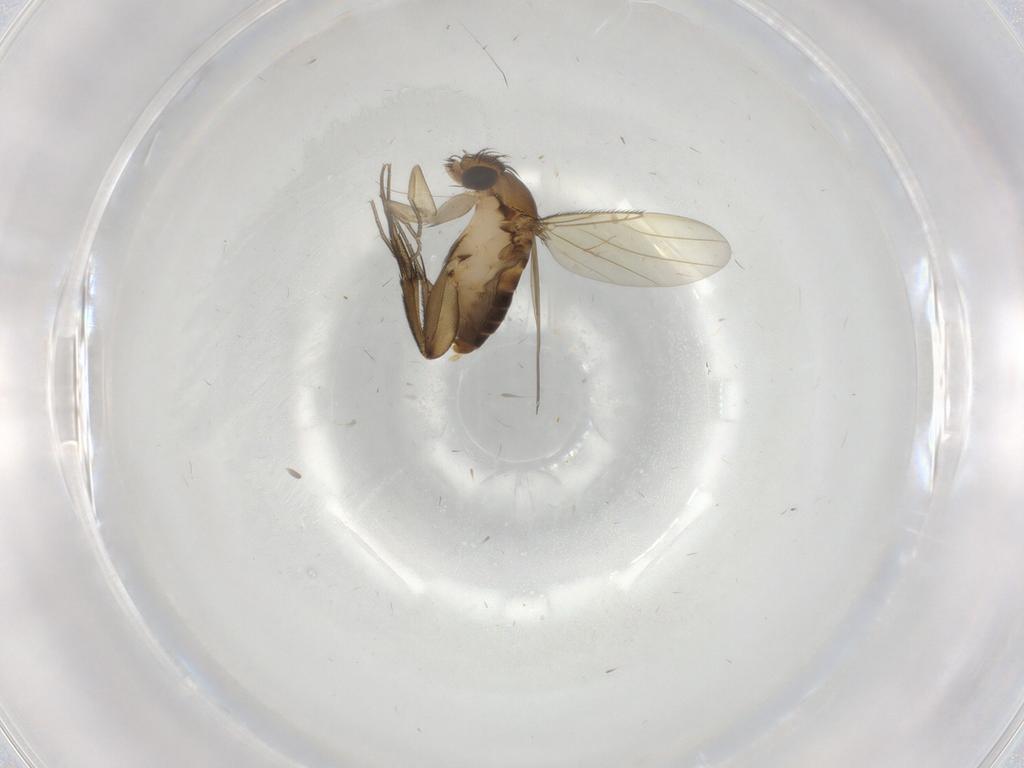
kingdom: Animalia
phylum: Arthropoda
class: Insecta
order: Diptera
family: Phoridae
